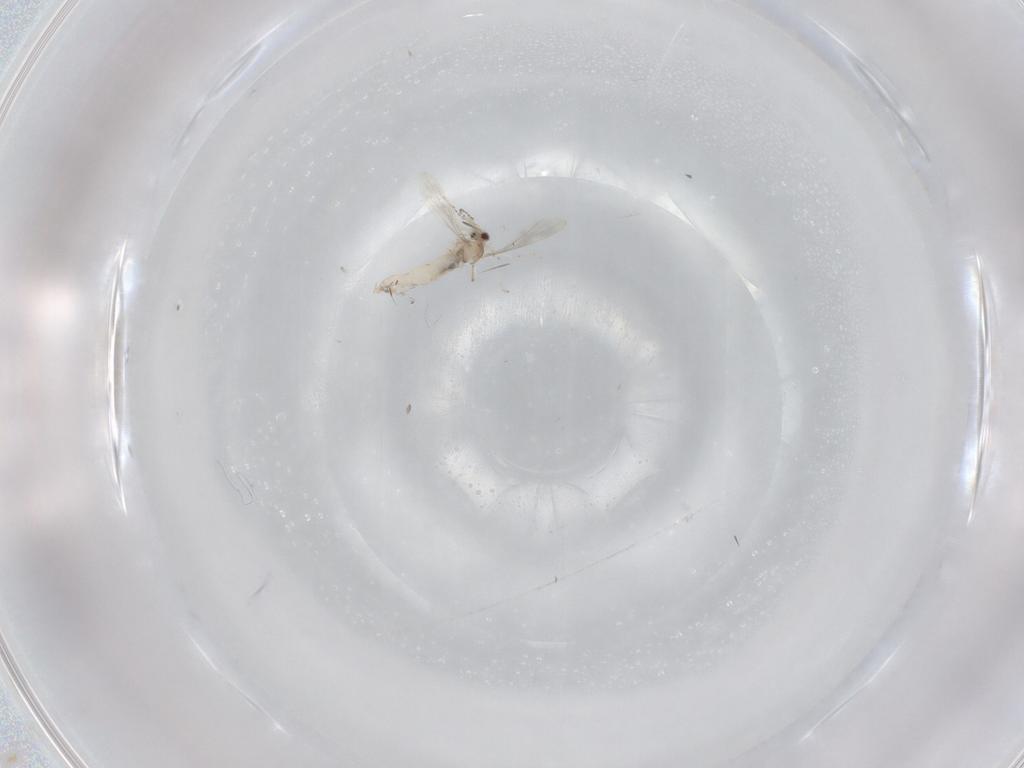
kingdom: Animalia
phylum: Arthropoda
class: Insecta
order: Diptera
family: Cecidomyiidae
